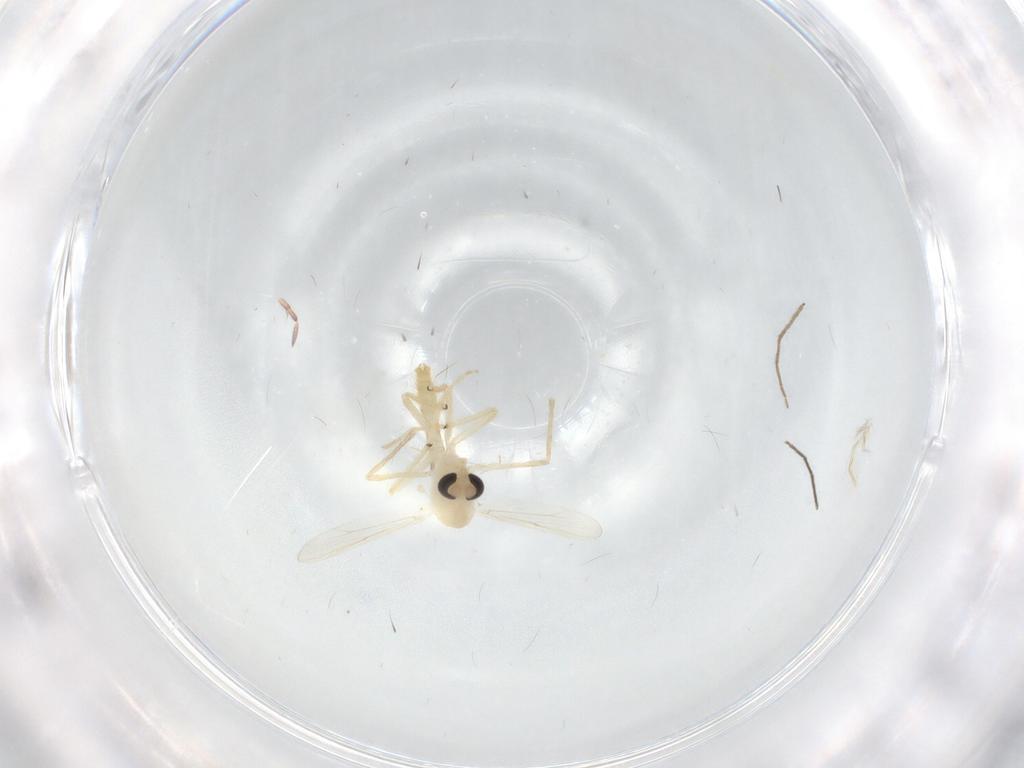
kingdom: Animalia
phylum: Arthropoda
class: Insecta
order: Diptera
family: Chironomidae
